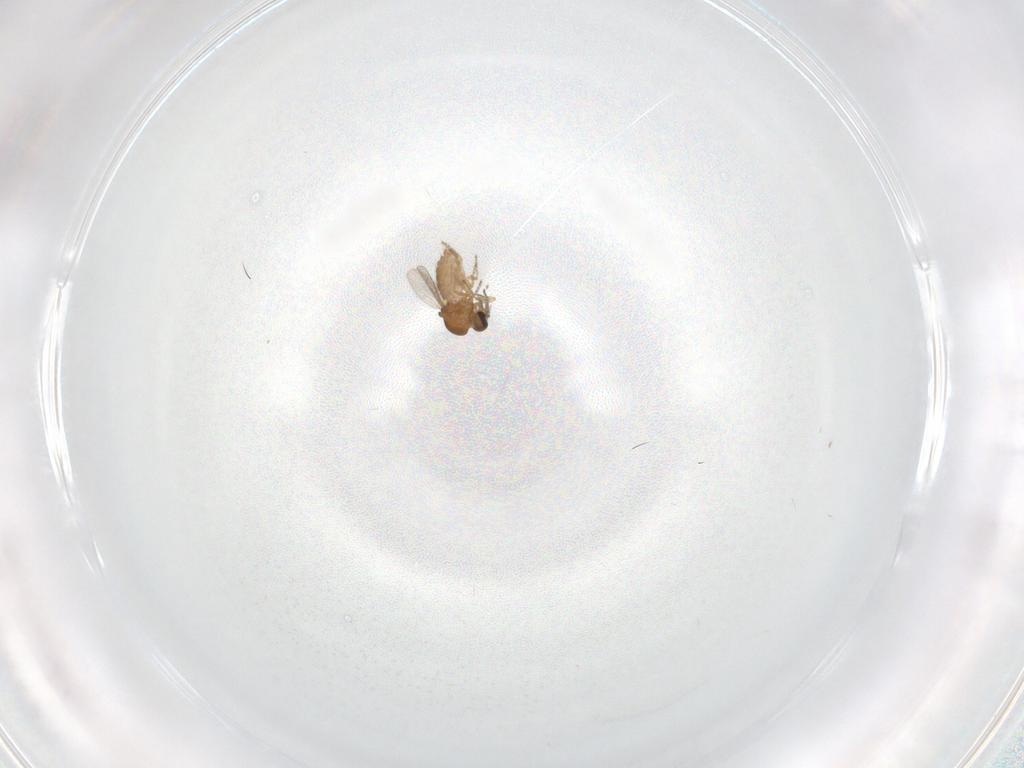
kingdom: Animalia
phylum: Arthropoda
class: Insecta
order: Diptera
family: Ceratopogonidae
